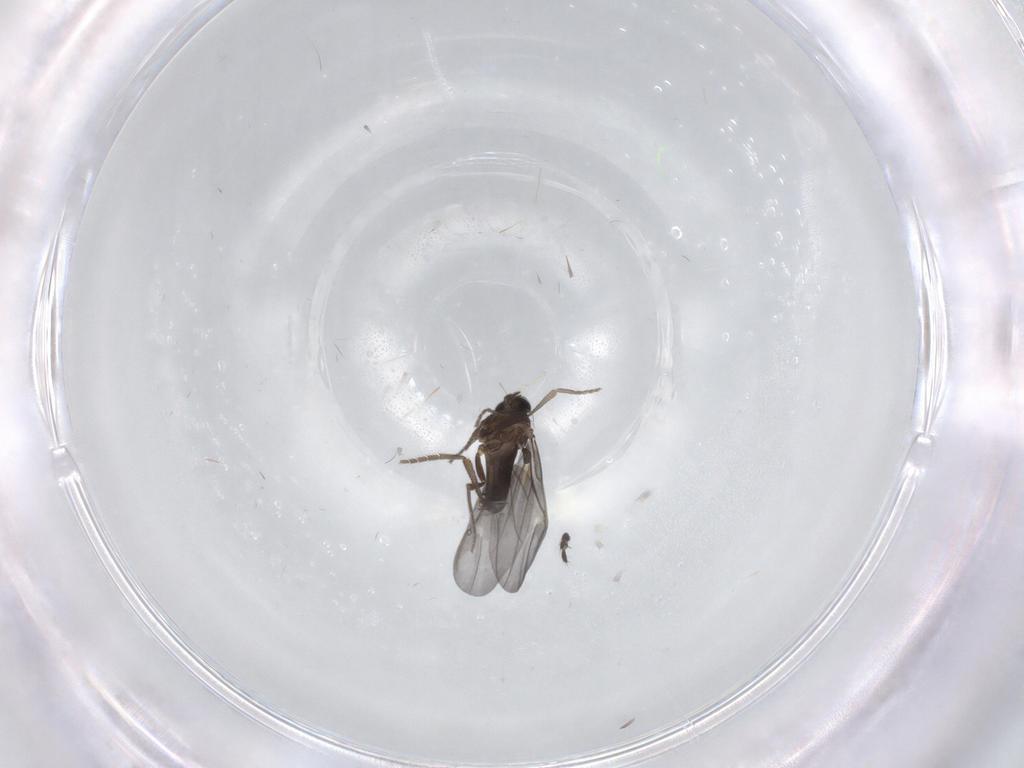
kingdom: Animalia
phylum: Arthropoda
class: Insecta
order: Diptera
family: Phoridae
